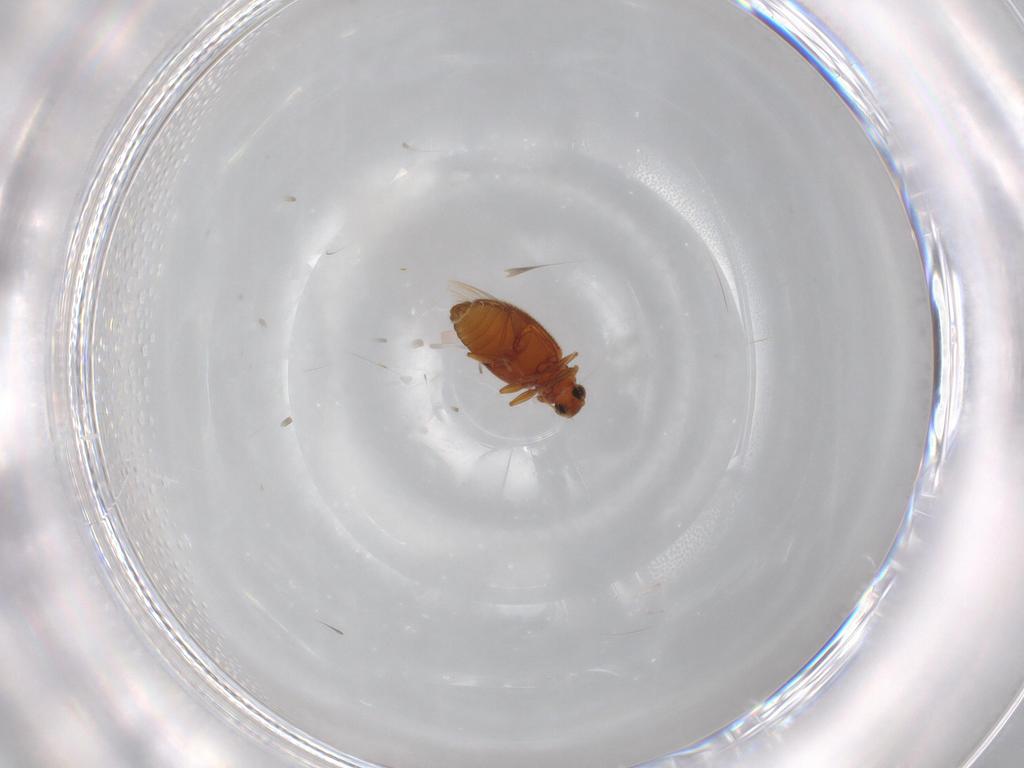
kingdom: Animalia
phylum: Arthropoda
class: Insecta
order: Coleoptera
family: Latridiidae
